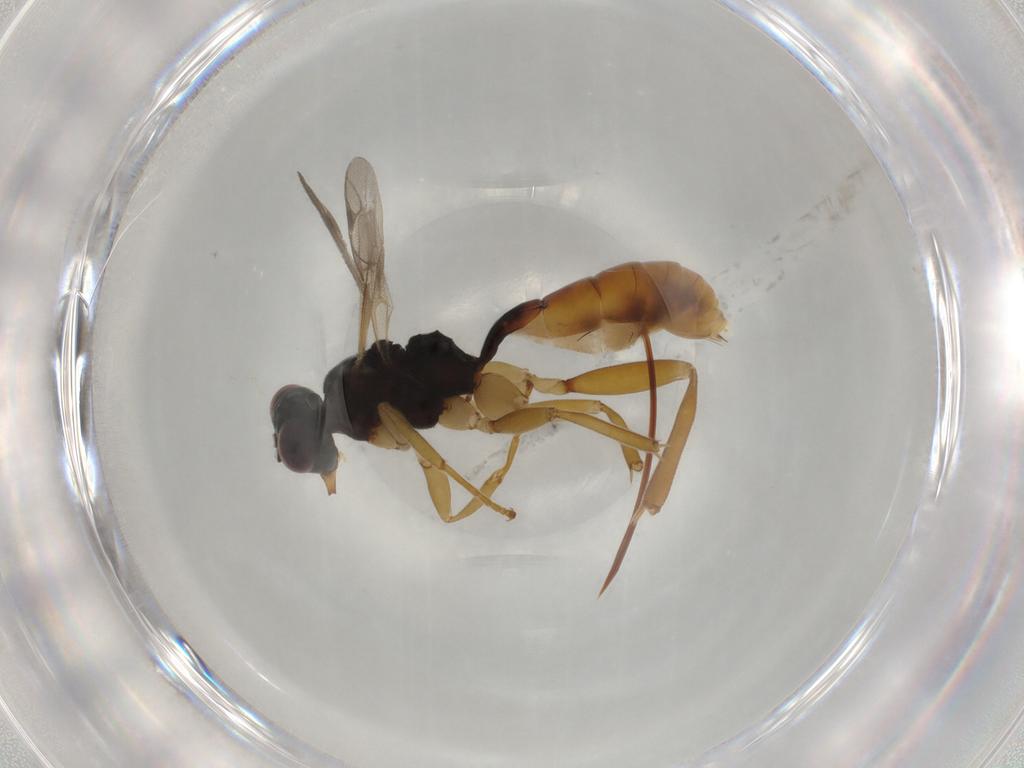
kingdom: Animalia
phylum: Arthropoda
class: Insecta
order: Hymenoptera
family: Ichneumonidae
